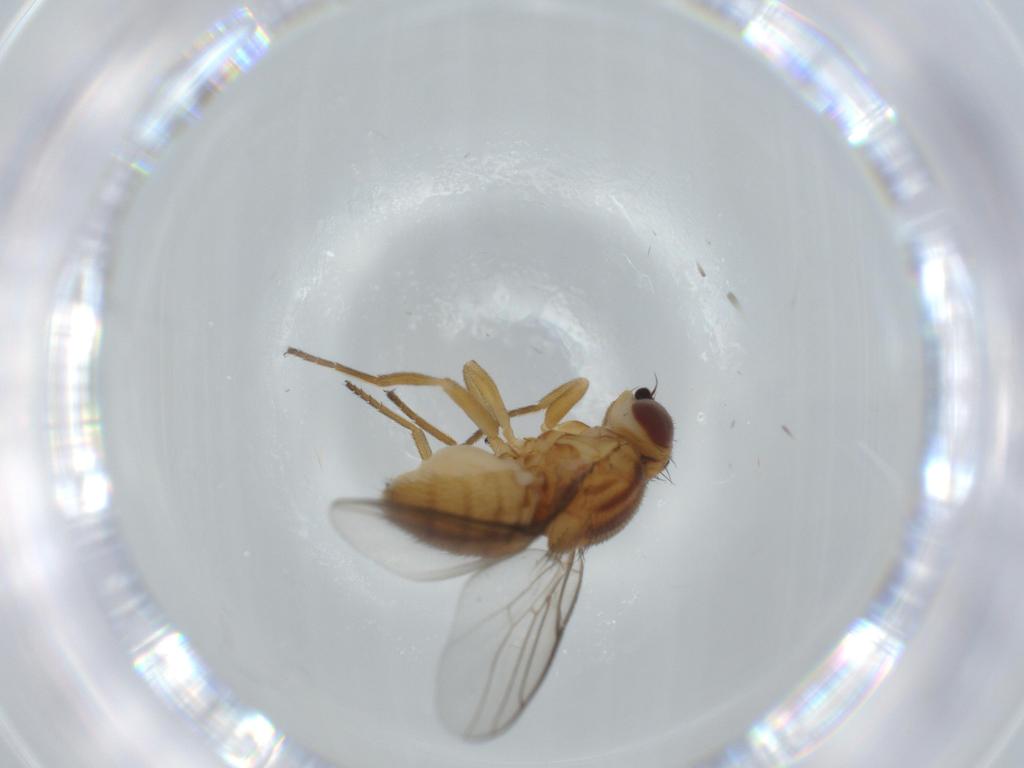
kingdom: Animalia
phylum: Arthropoda
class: Insecta
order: Diptera
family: Chloropidae
